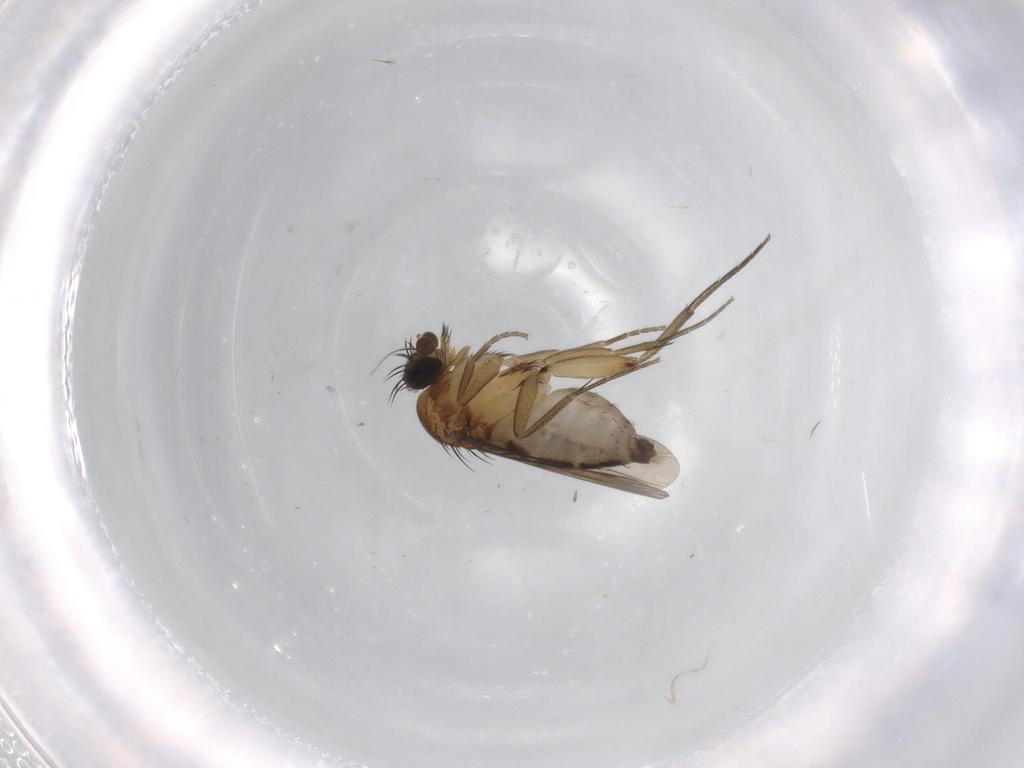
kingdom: Animalia
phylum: Arthropoda
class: Insecta
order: Diptera
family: Phoridae
